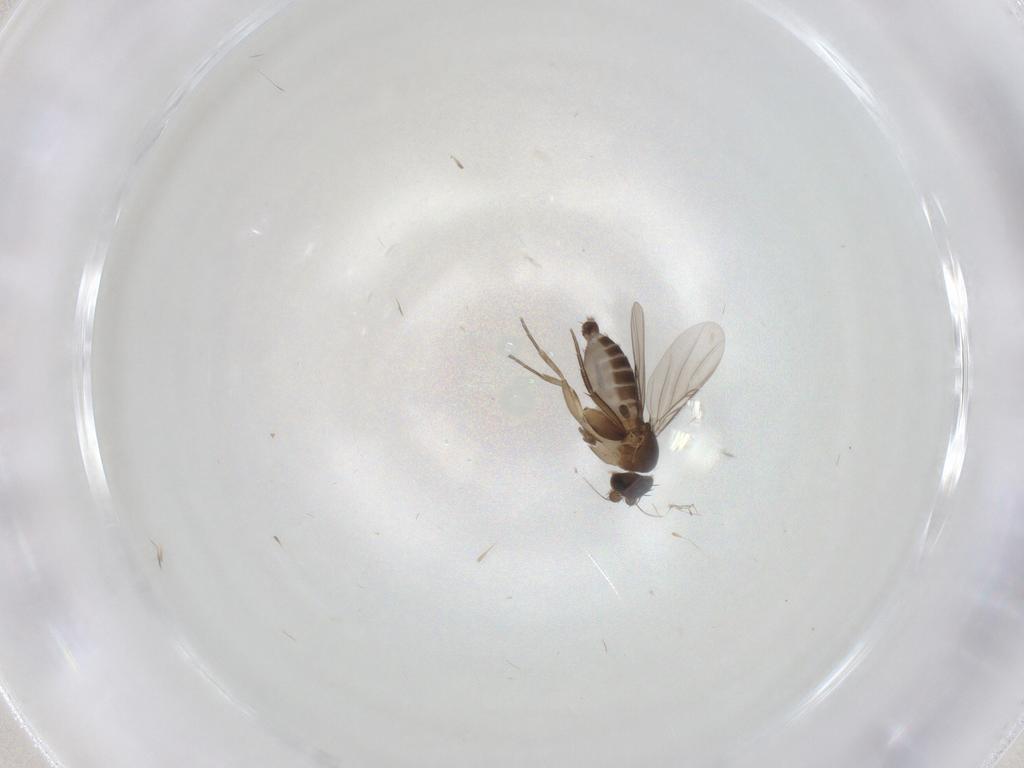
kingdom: Animalia
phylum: Arthropoda
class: Insecta
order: Diptera
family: Phoridae
